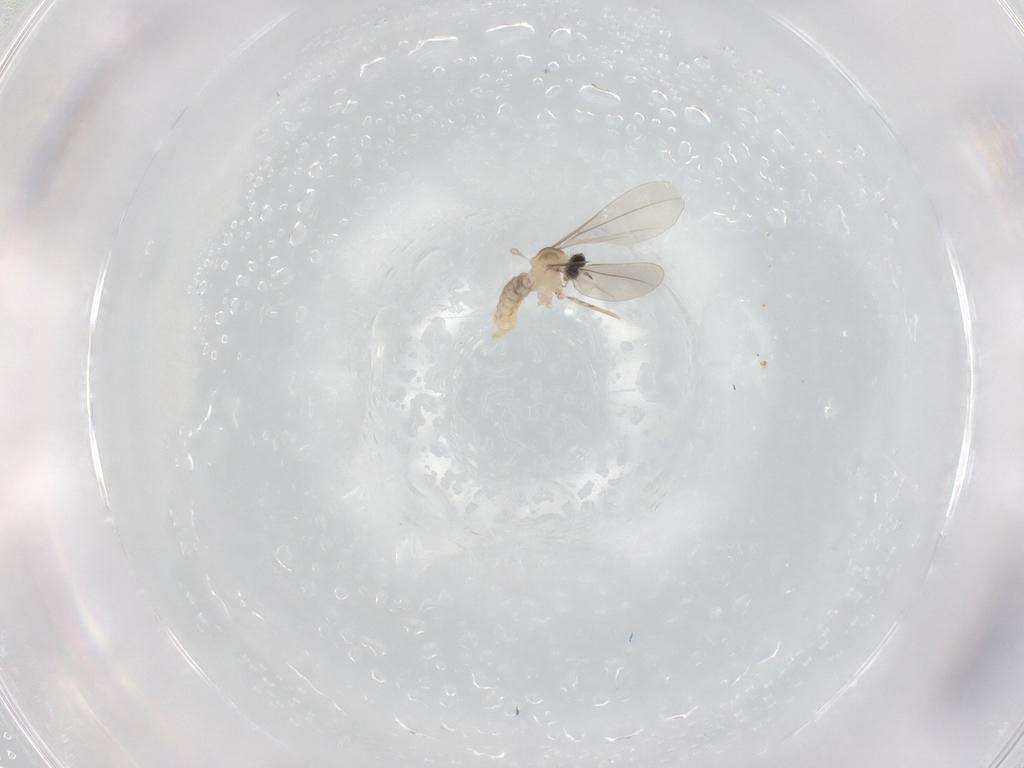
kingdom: Animalia
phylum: Arthropoda
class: Insecta
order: Diptera
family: Cecidomyiidae
